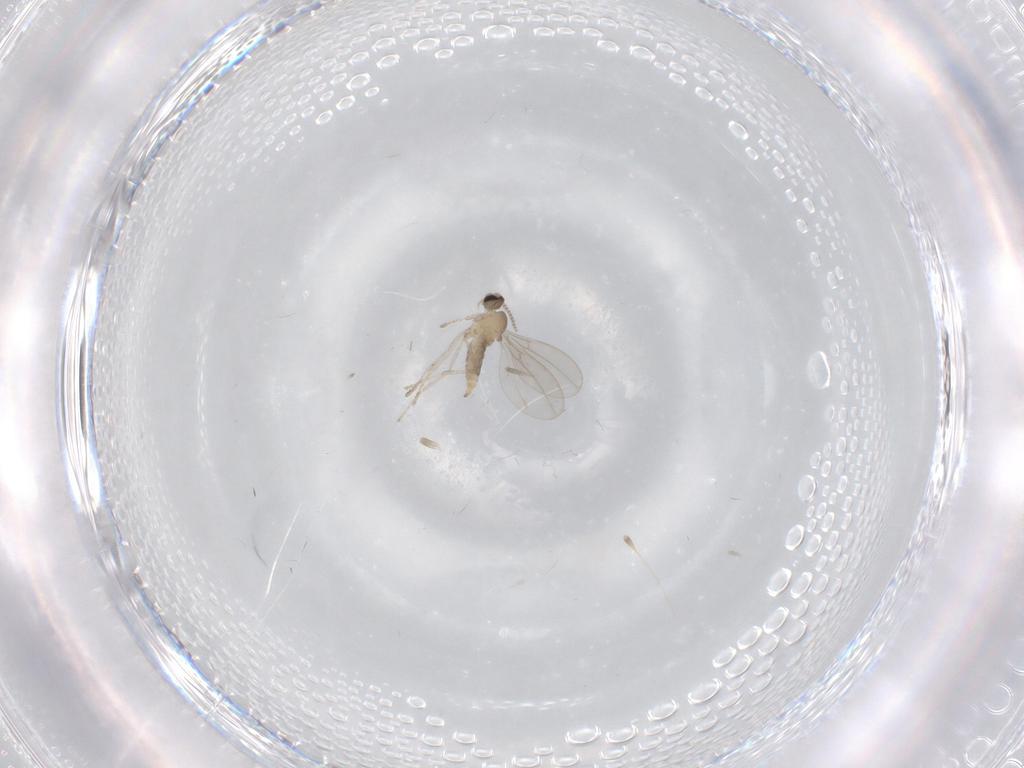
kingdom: Animalia
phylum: Arthropoda
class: Insecta
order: Diptera
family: Cecidomyiidae
